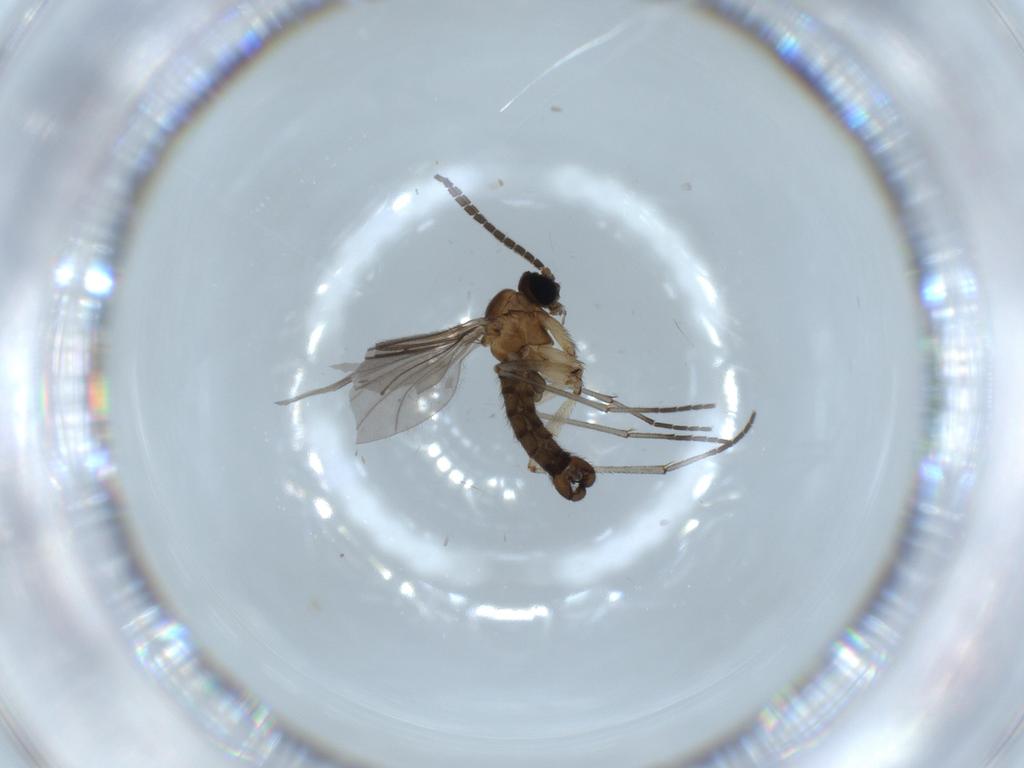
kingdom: Animalia
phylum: Arthropoda
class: Insecta
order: Diptera
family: Sciaridae
